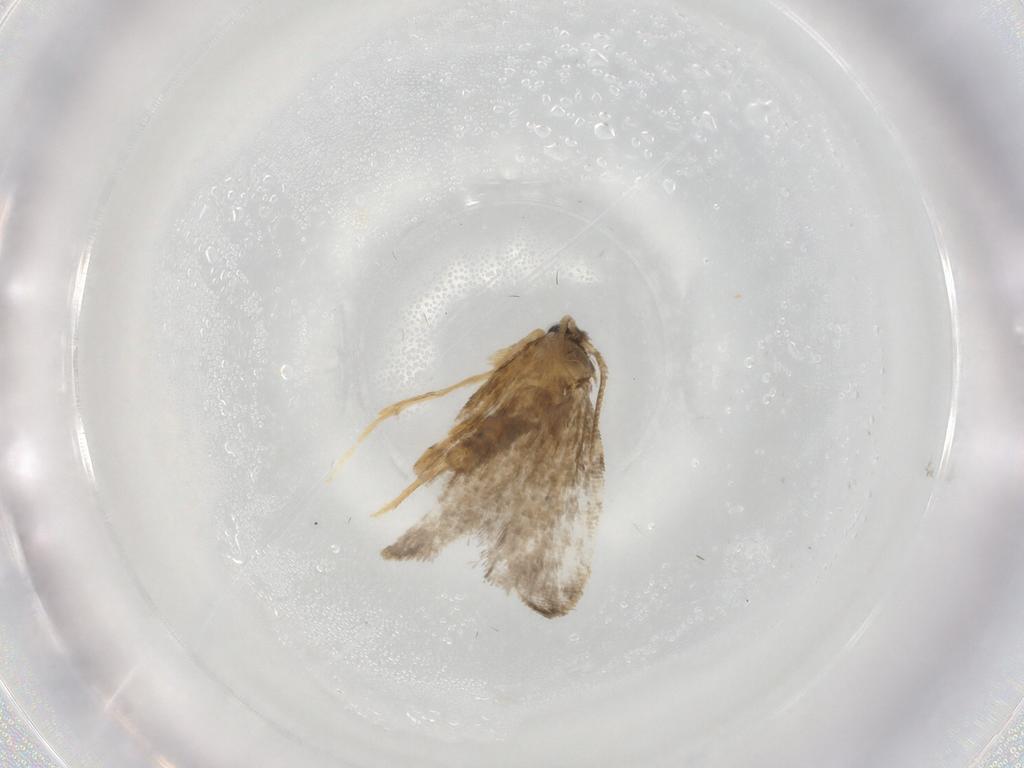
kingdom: Animalia
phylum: Arthropoda
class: Insecta
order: Lepidoptera
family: Psychidae
